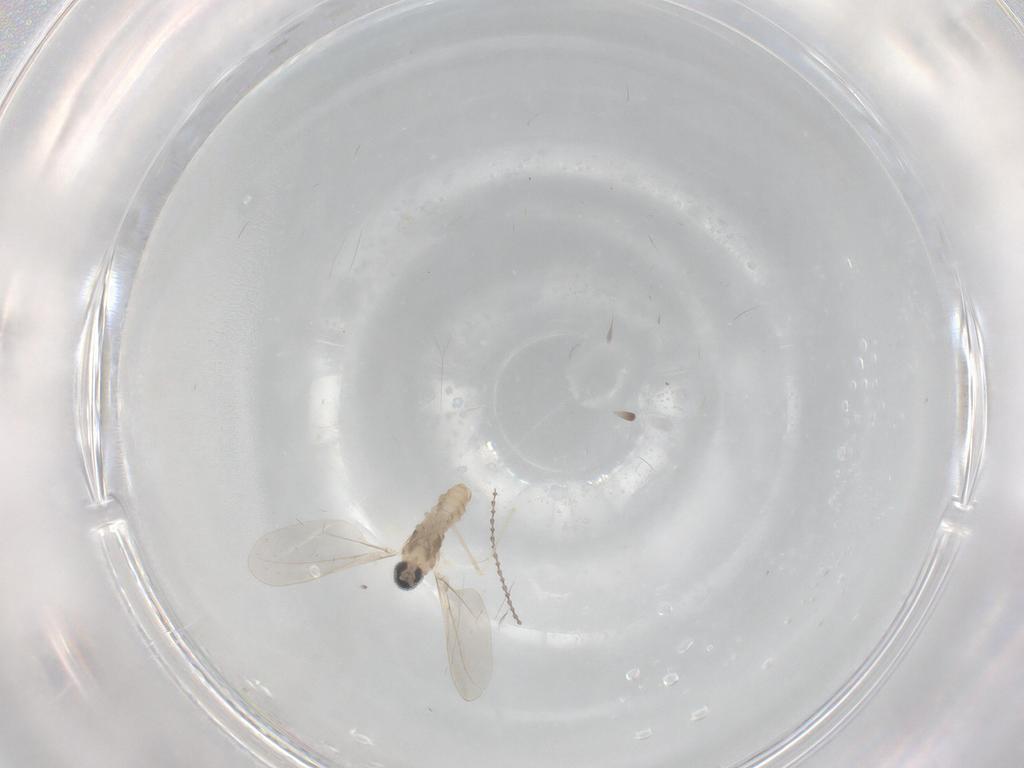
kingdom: Animalia
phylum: Arthropoda
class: Insecta
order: Diptera
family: Cecidomyiidae
